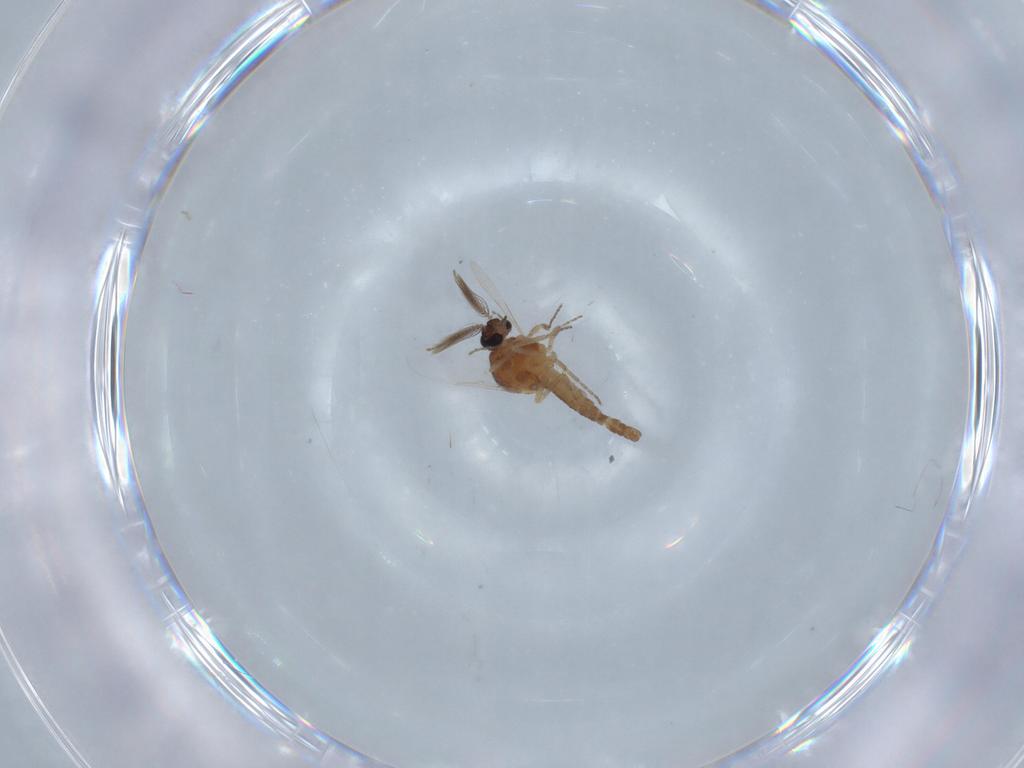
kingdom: Animalia
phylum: Arthropoda
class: Insecta
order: Diptera
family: Ceratopogonidae
